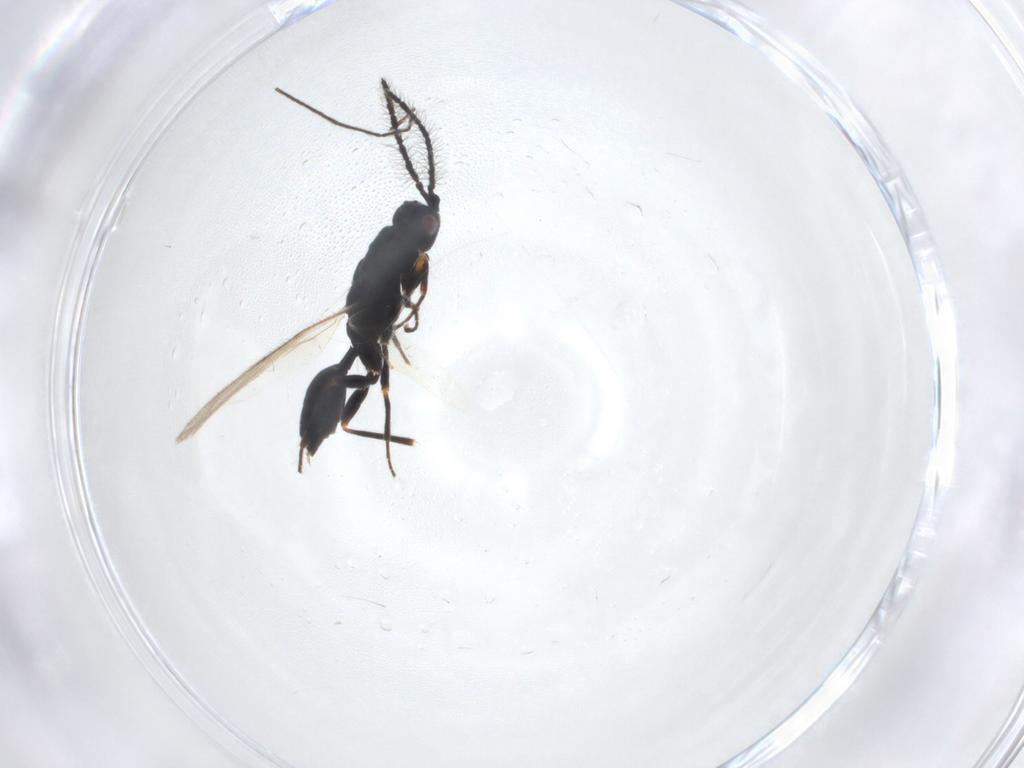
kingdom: Animalia
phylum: Arthropoda
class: Insecta
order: Hymenoptera
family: Eurytomidae
